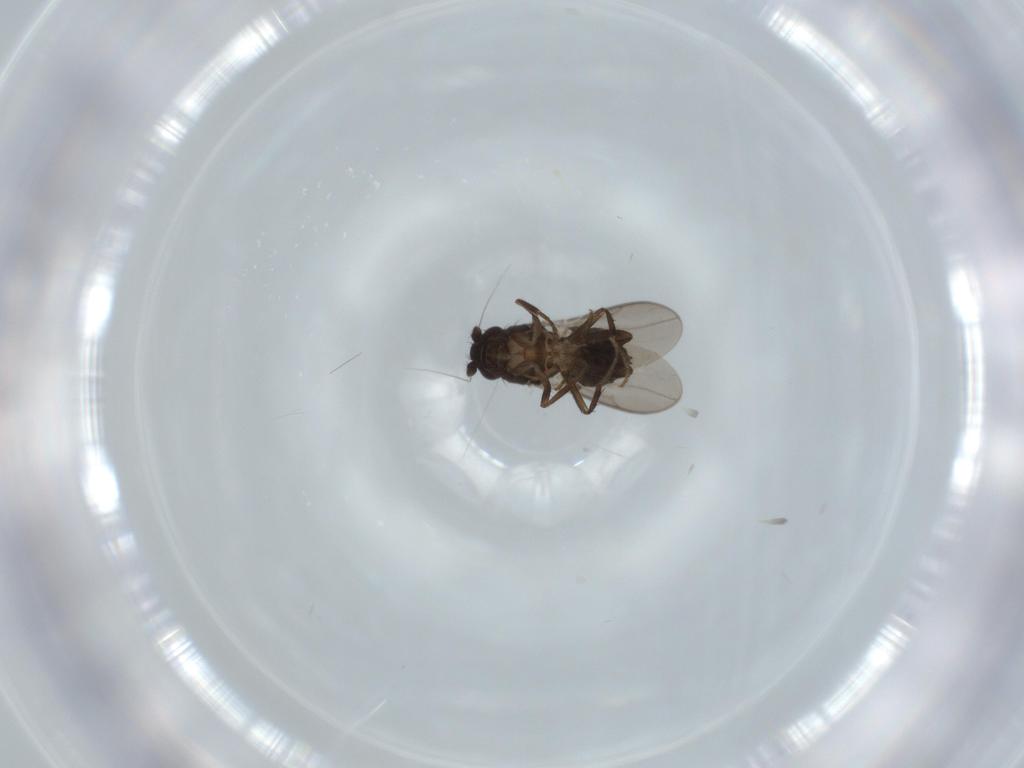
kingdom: Animalia
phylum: Arthropoda
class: Insecta
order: Diptera
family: Sphaeroceridae
